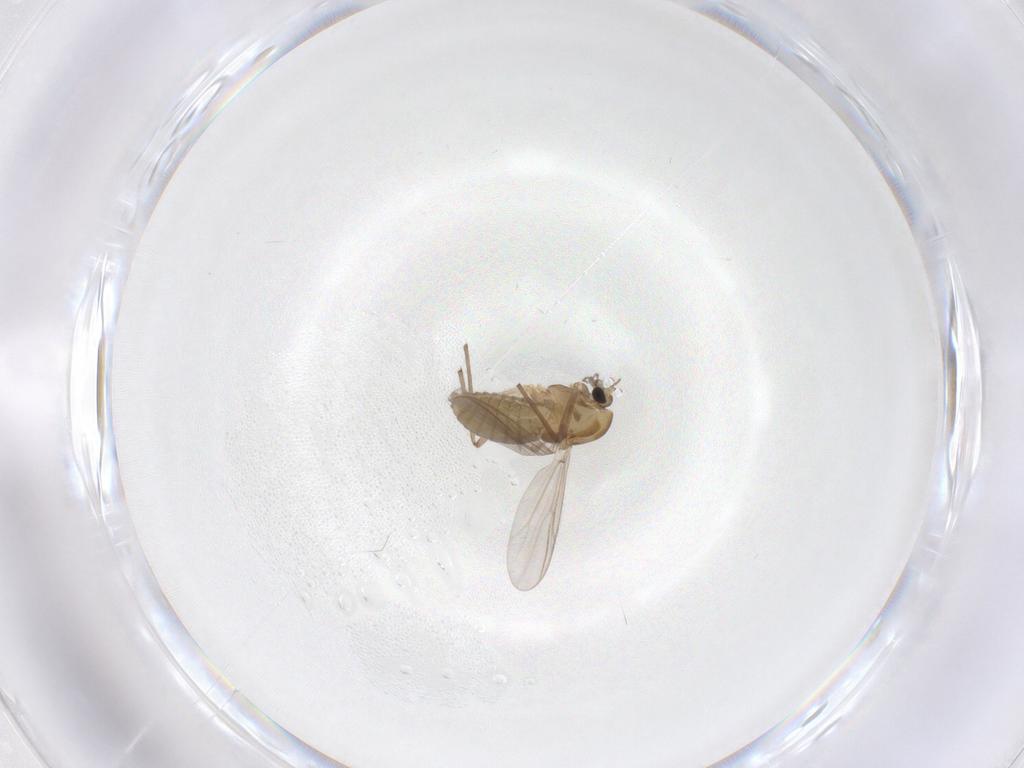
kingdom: Animalia
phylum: Arthropoda
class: Insecta
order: Diptera
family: Chironomidae
